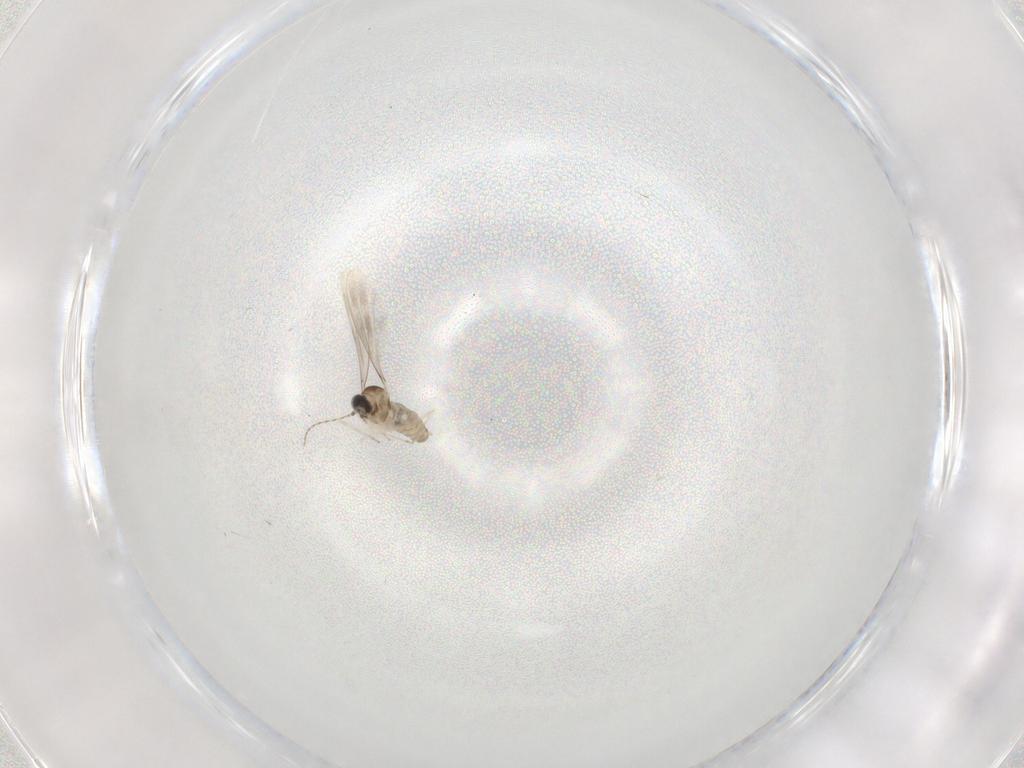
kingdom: Animalia
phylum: Arthropoda
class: Insecta
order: Diptera
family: Cecidomyiidae
